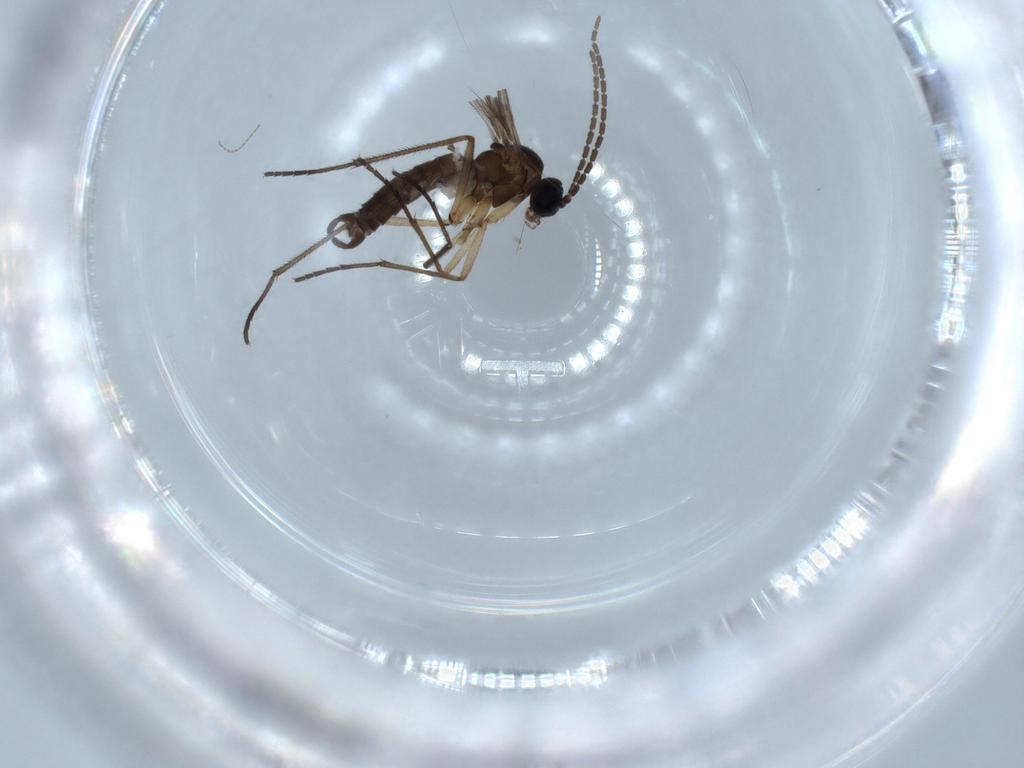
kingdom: Animalia
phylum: Arthropoda
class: Insecta
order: Diptera
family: Sciaridae
